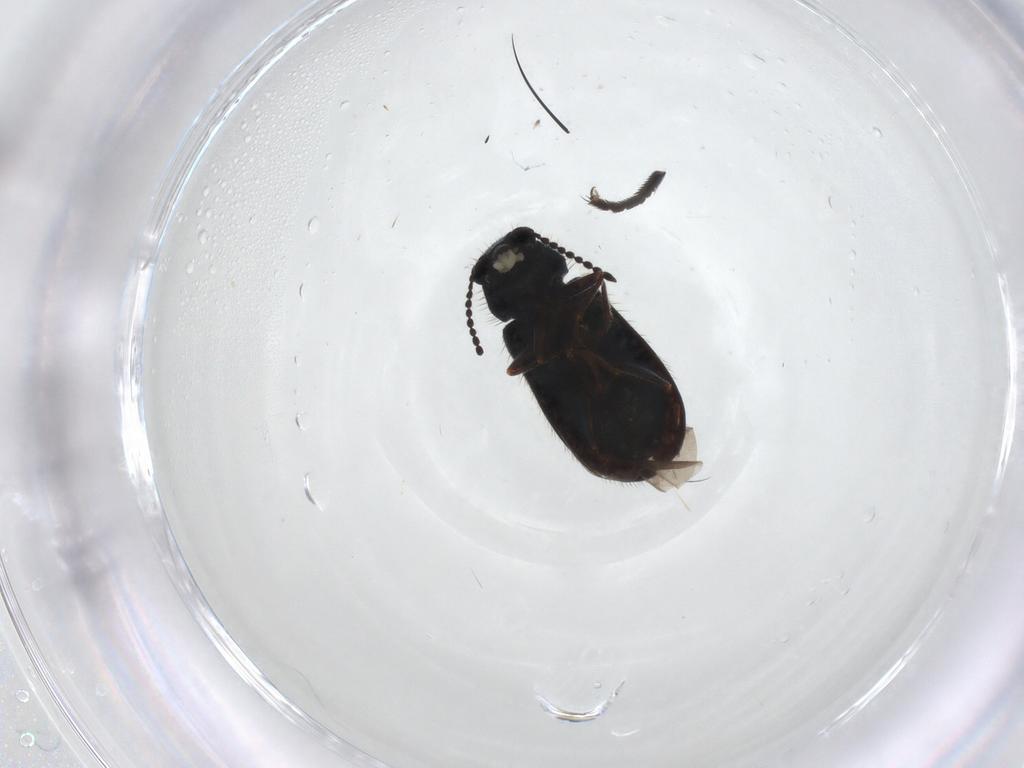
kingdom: Animalia
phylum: Arthropoda
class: Insecta
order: Coleoptera
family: Melyridae
